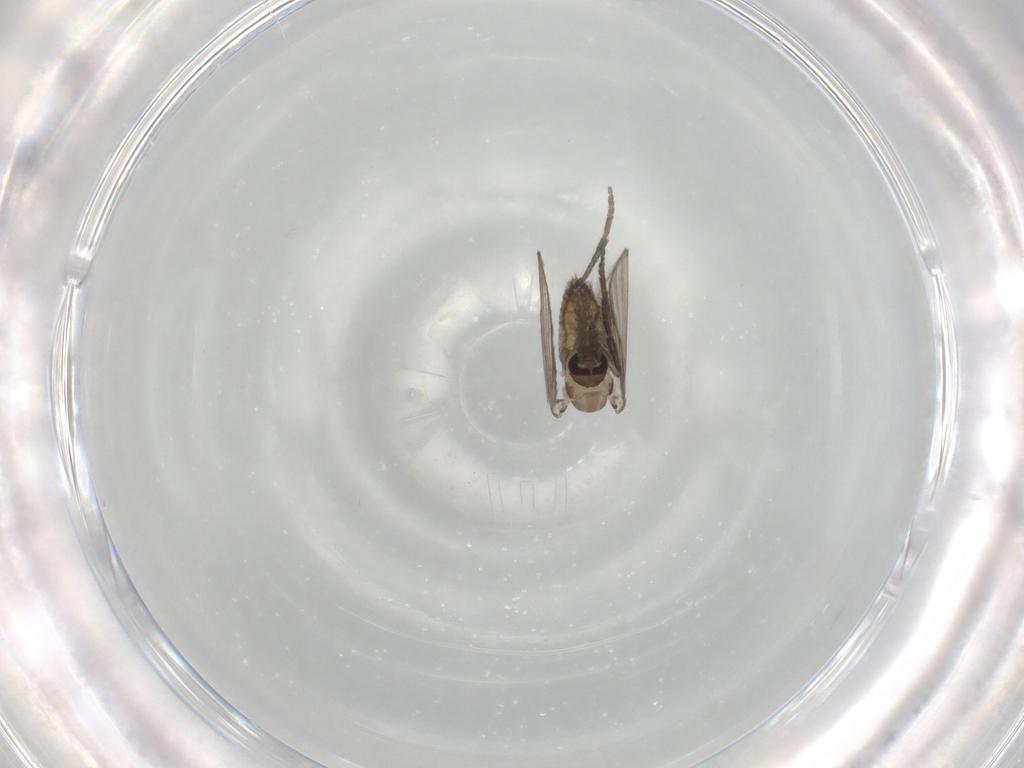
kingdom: Animalia
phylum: Arthropoda
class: Insecta
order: Diptera
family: Psychodidae
